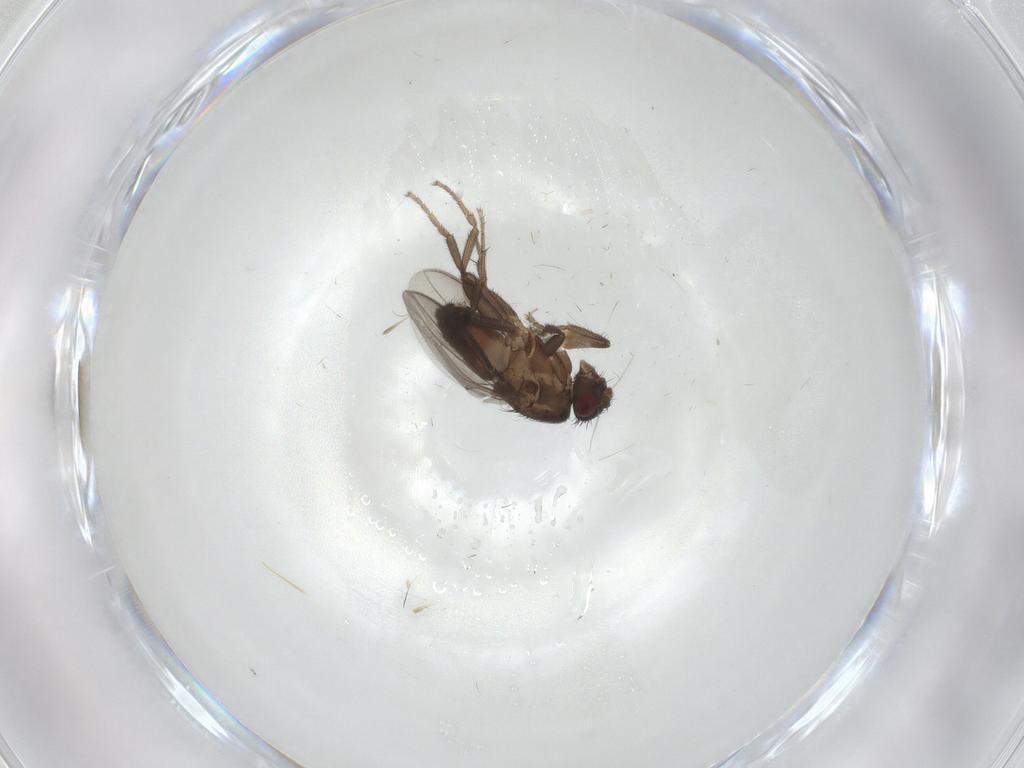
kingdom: Animalia
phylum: Arthropoda
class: Insecta
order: Diptera
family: Sphaeroceridae
